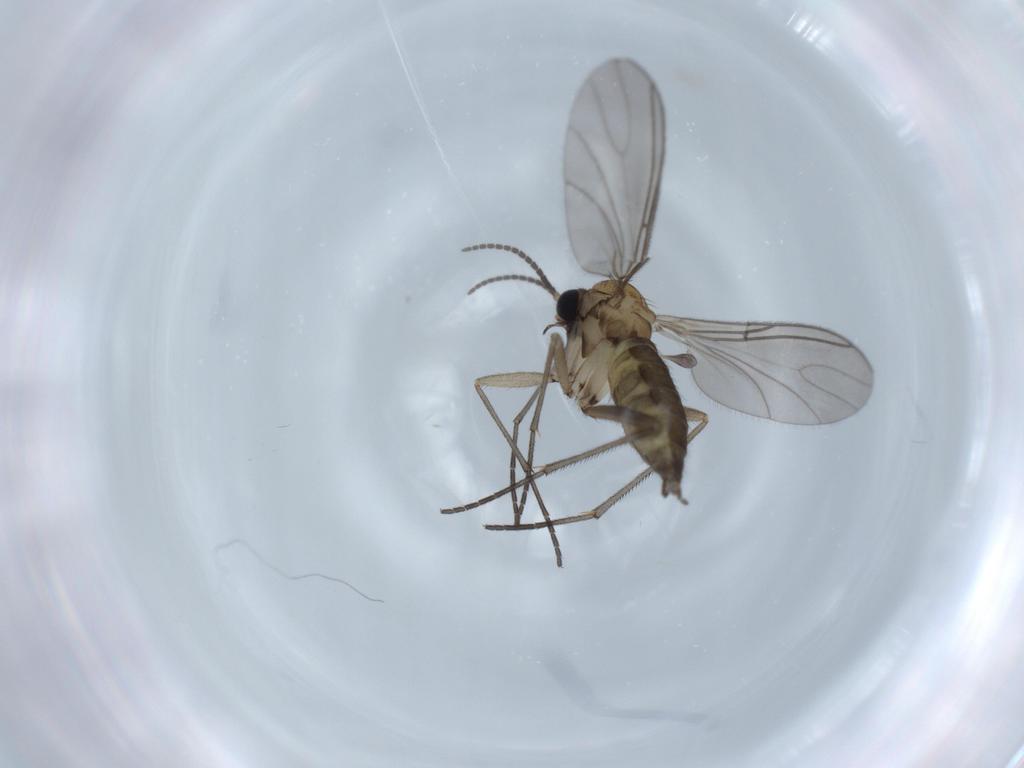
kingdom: Animalia
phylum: Arthropoda
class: Insecta
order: Diptera
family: Sciaridae
